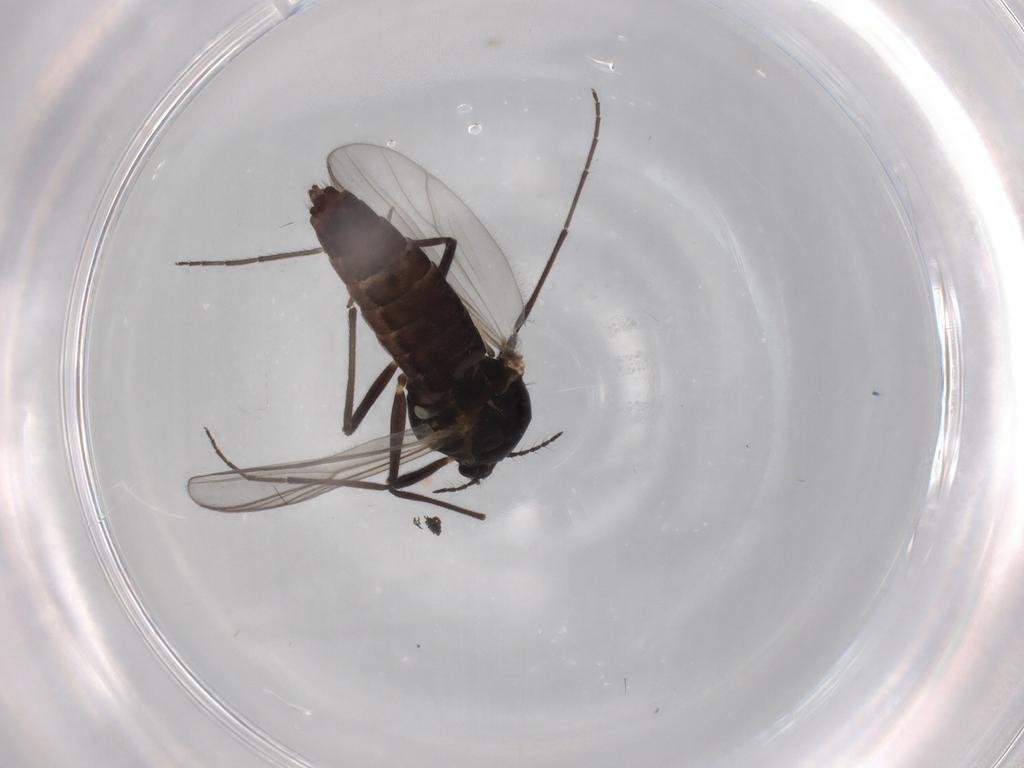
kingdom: Animalia
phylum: Arthropoda
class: Insecta
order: Diptera
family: Chironomidae
